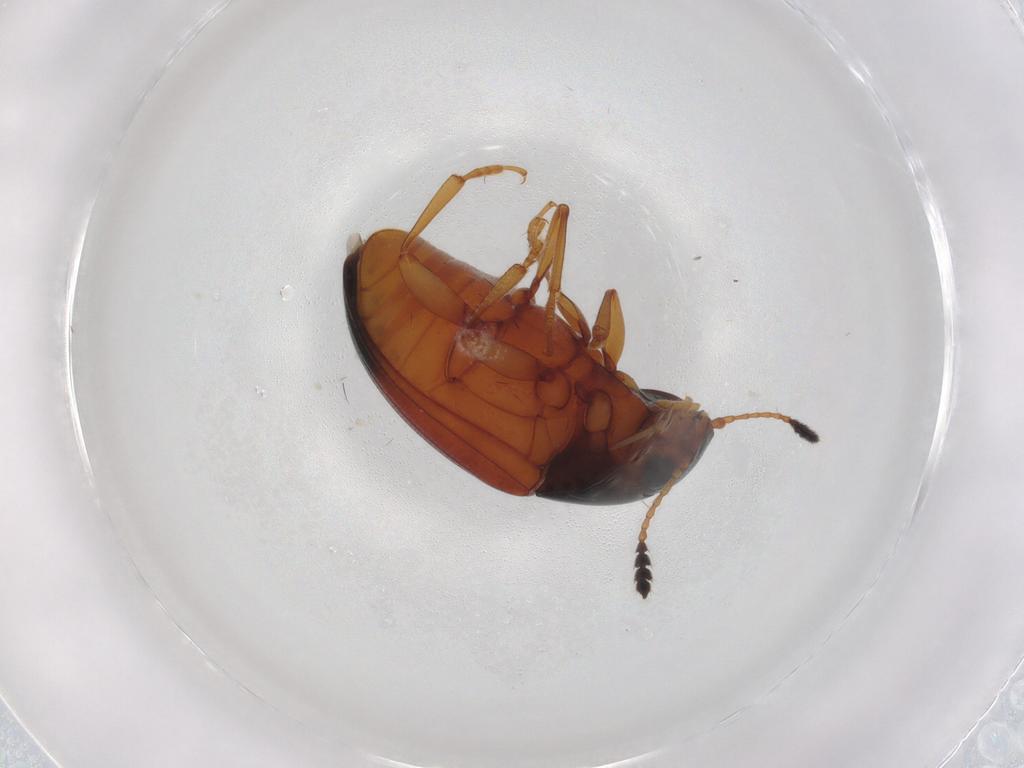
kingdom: Animalia
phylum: Arthropoda
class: Insecta
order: Coleoptera
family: Erotylidae
